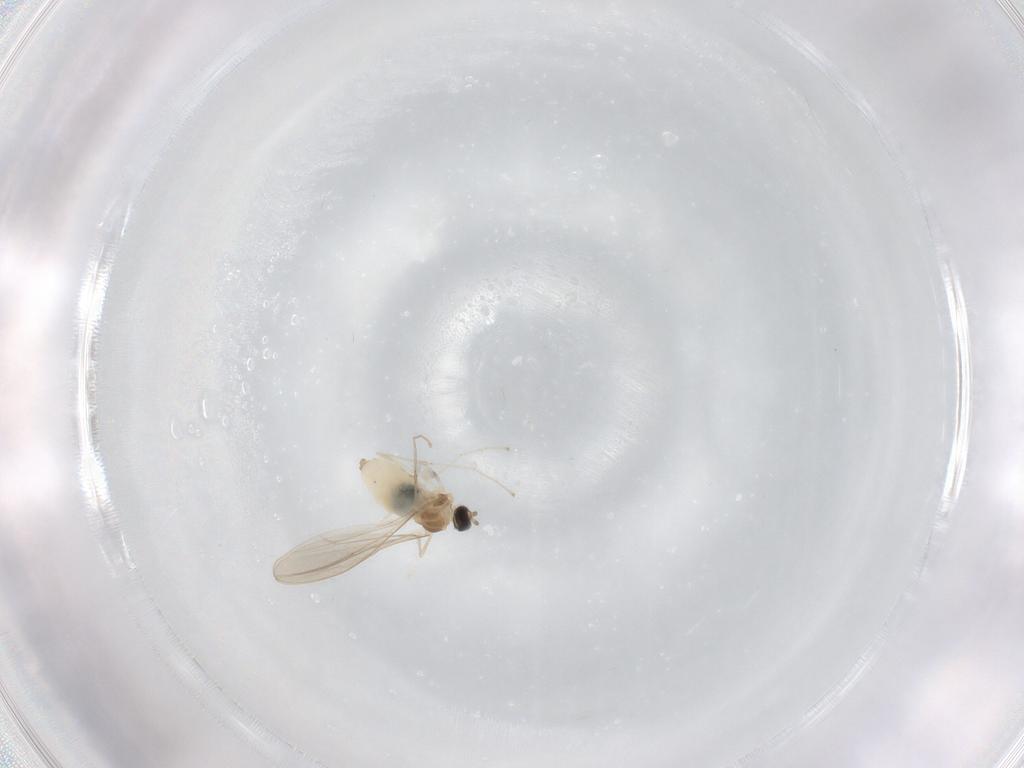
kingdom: Animalia
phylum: Arthropoda
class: Insecta
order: Diptera
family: Cecidomyiidae
